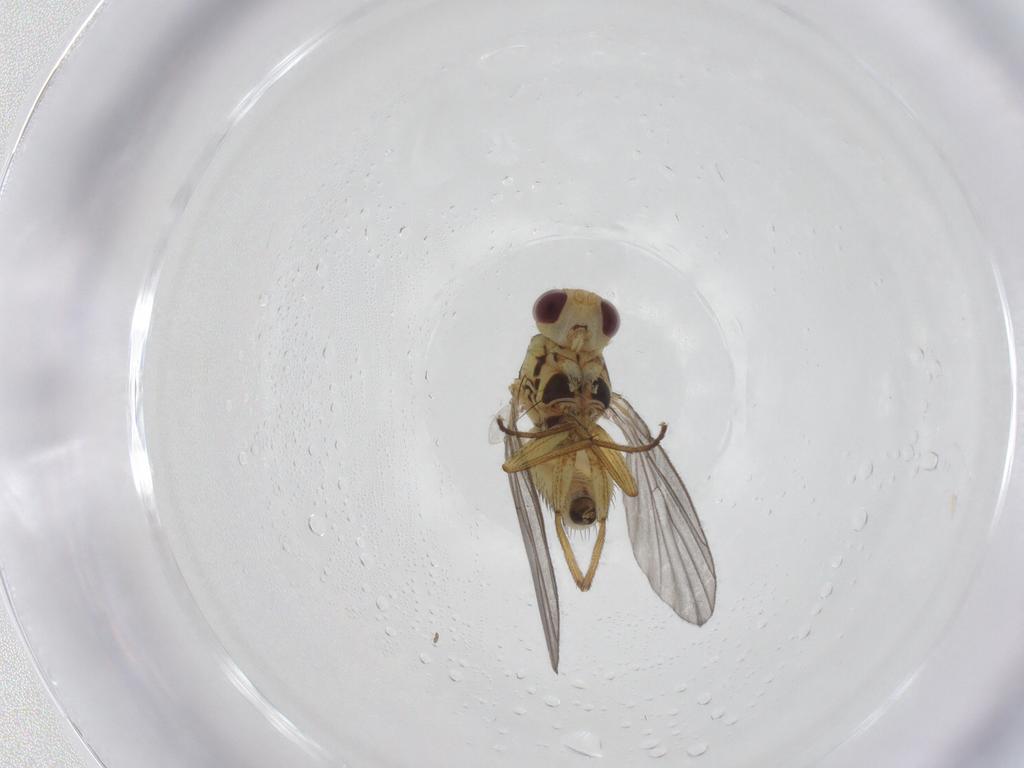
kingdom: Animalia
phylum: Arthropoda
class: Insecta
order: Diptera
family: Agromyzidae
